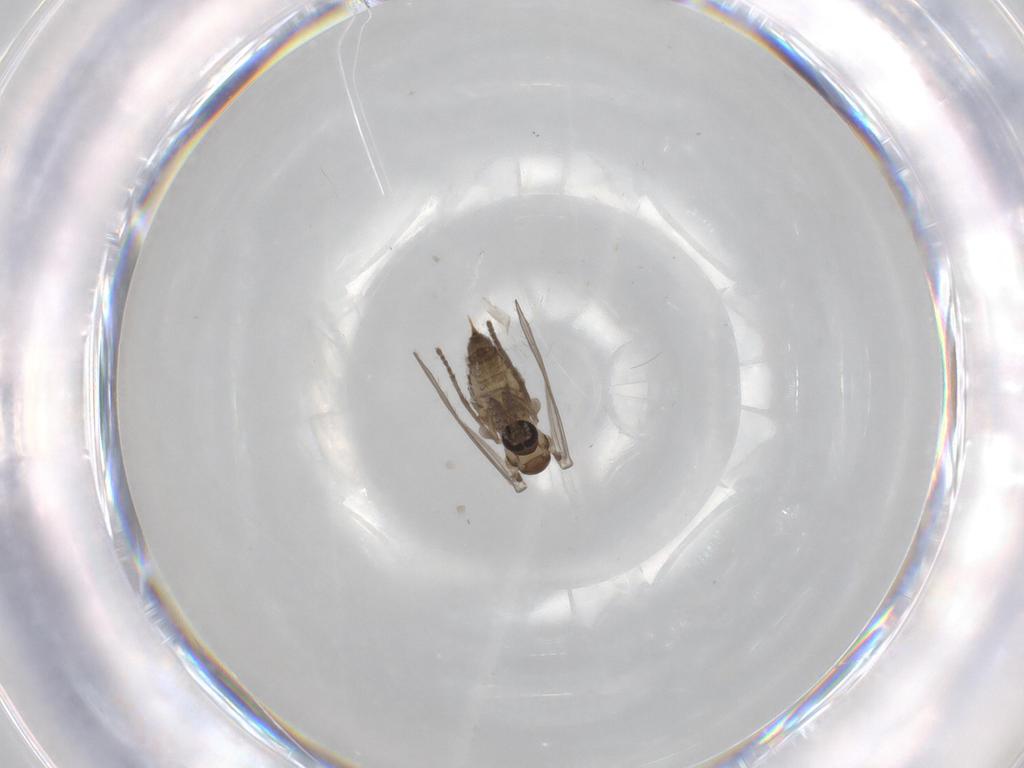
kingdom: Animalia
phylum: Arthropoda
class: Insecta
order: Diptera
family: Psychodidae
